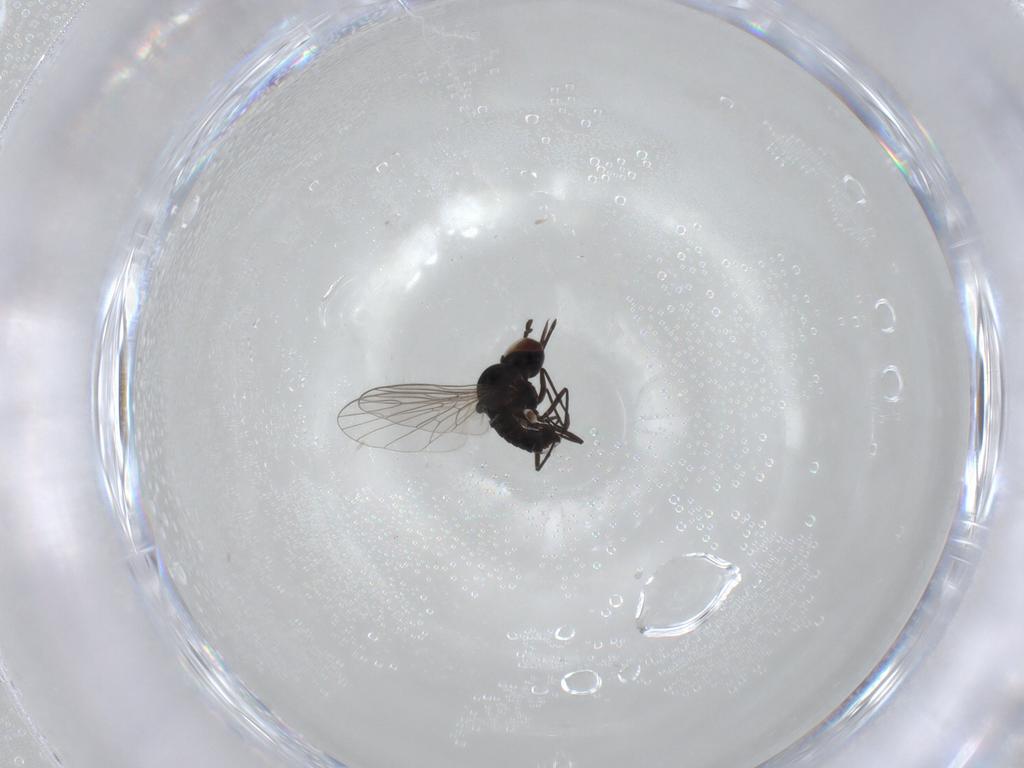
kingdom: Animalia
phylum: Arthropoda
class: Insecta
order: Diptera
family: Bombyliidae
